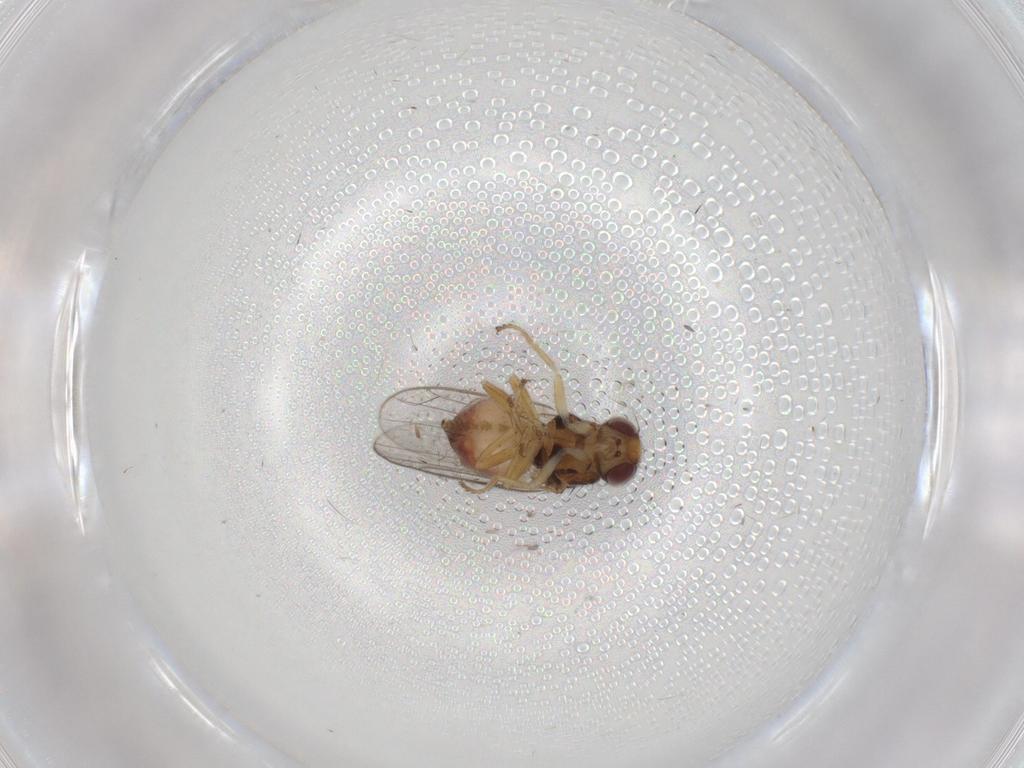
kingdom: Animalia
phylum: Arthropoda
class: Insecta
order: Diptera
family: Chloropidae
